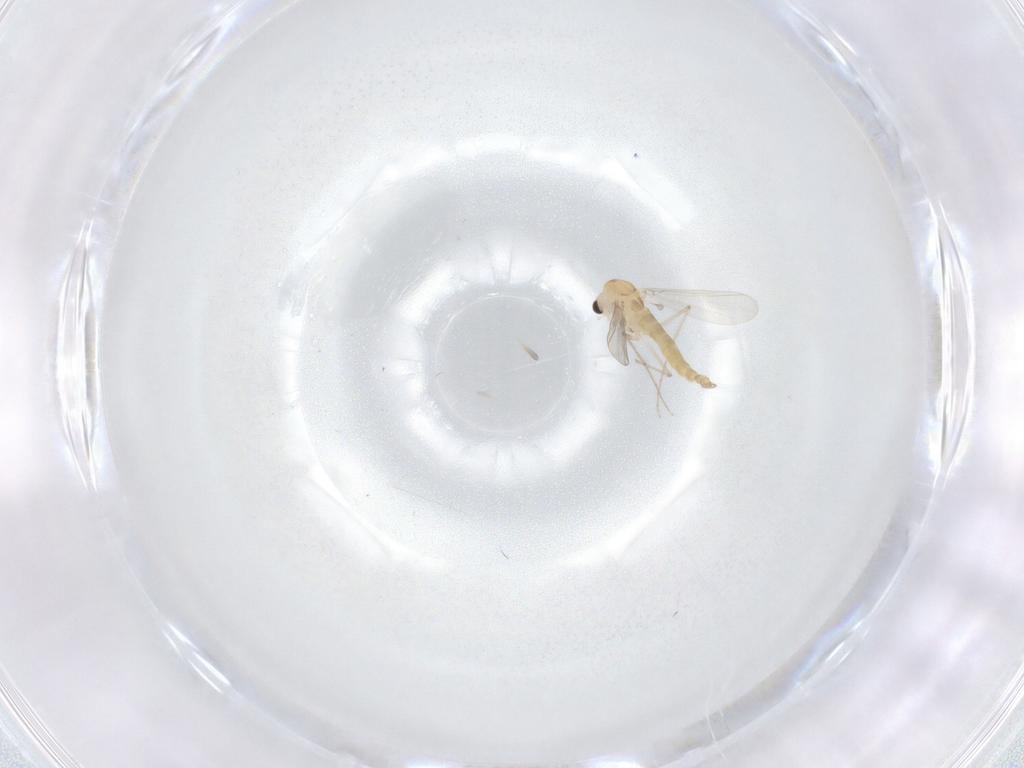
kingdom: Animalia
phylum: Arthropoda
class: Insecta
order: Diptera
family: Chironomidae
